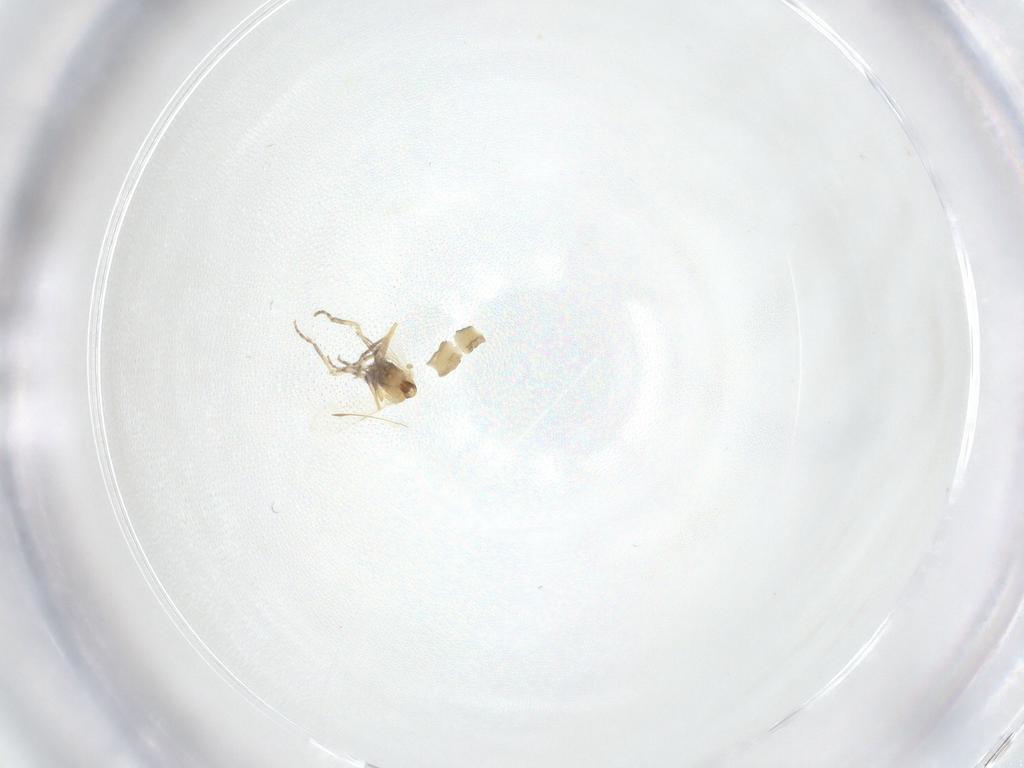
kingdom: Animalia
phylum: Arthropoda
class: Insecta
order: Diptera
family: Ceratopogonidae
